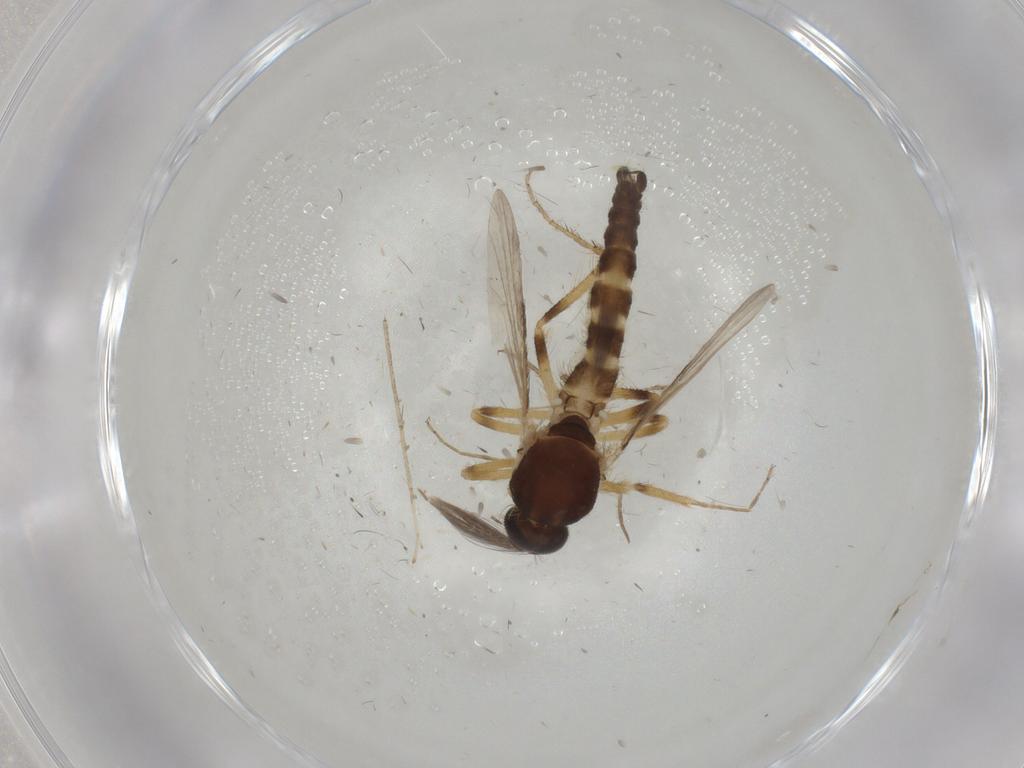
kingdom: Animalia
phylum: Arthropoda
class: Insecta
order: Diptera
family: Ceratopogonidae
